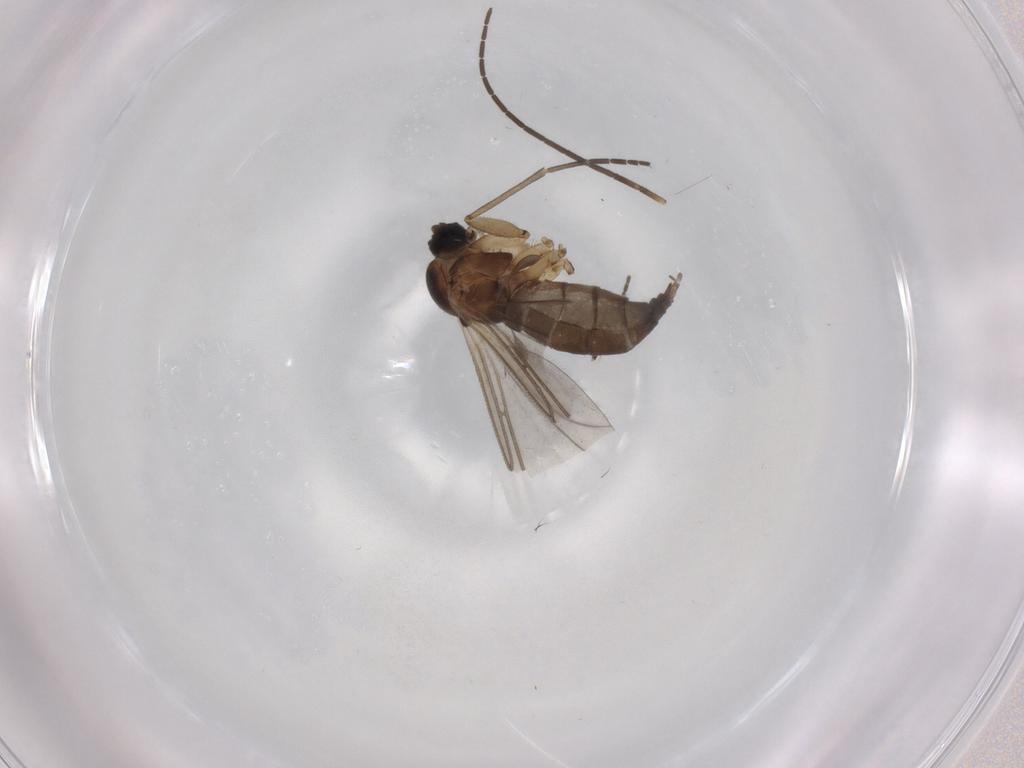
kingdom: Animalia
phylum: Arthropoda
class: Insecta
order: Diptera
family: Sciaridae
